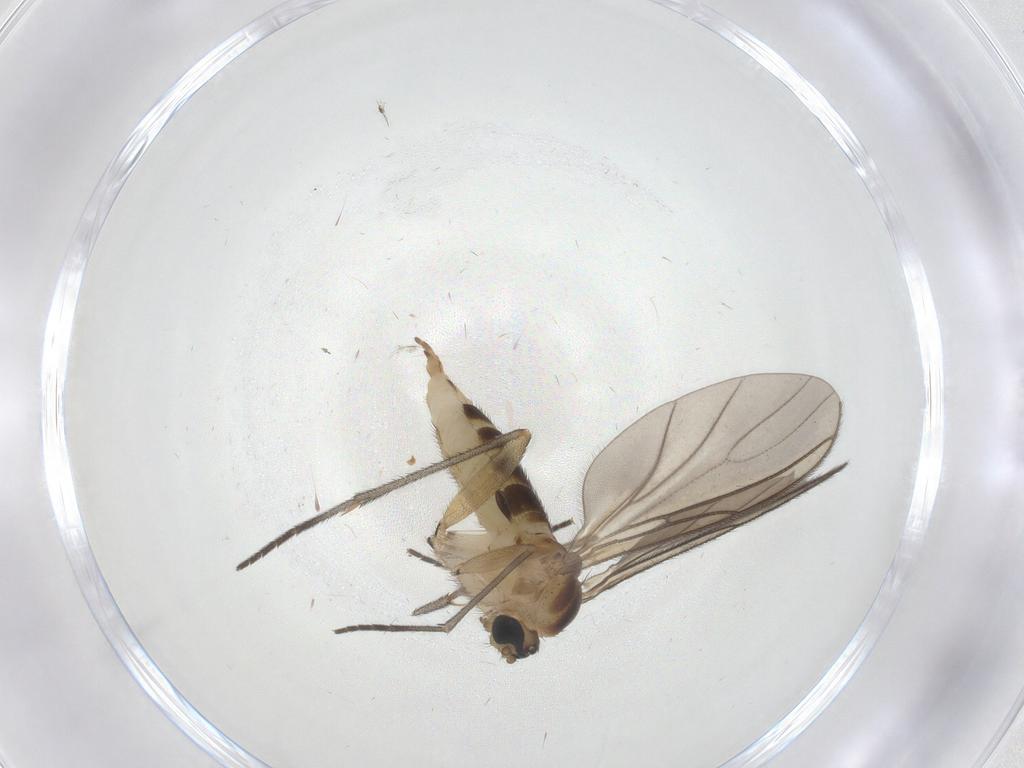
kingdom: Animalia
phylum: Arthropoda
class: Insecta
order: Diptera
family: Sciaridae
